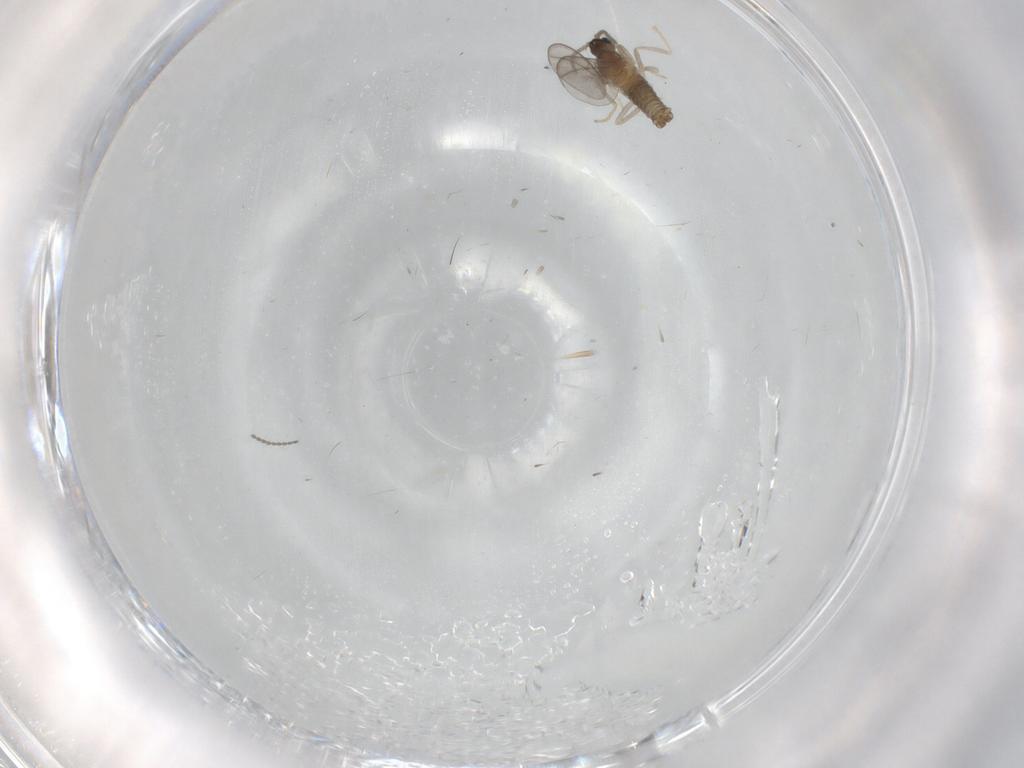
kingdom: Animalia
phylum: Arthropoda
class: Insecta
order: Diptera
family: Cecidomyiidae
